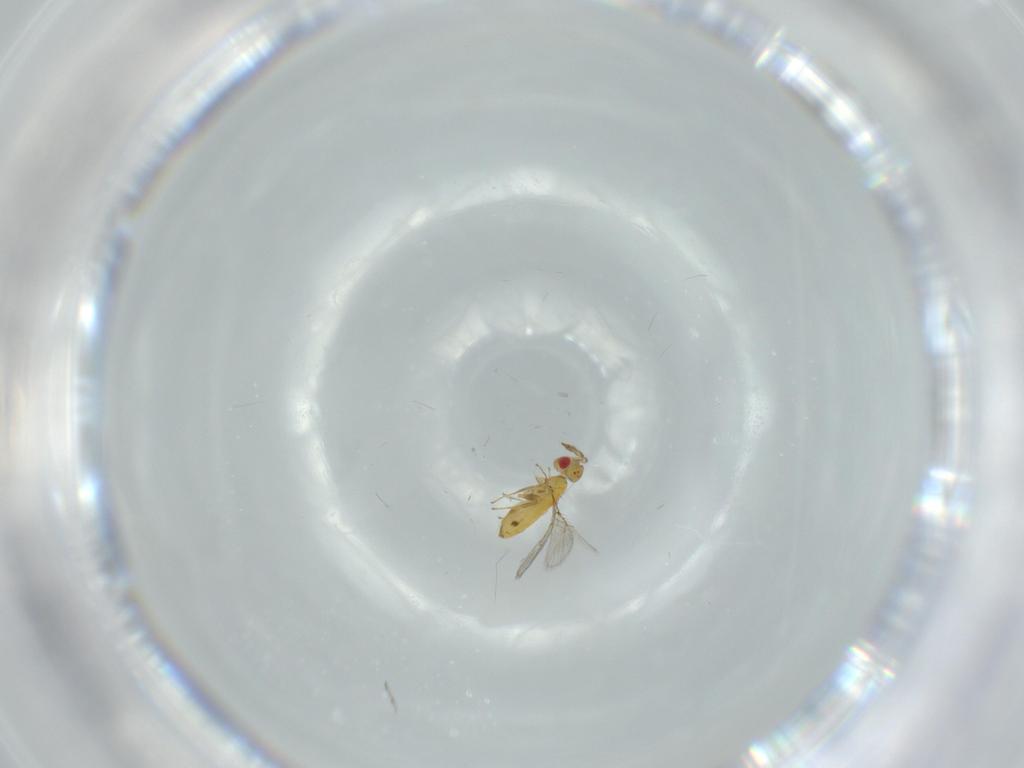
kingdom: Animalia
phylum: Arthropoda
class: Insecta
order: Hymenoptera
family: Trichogrammatidae
